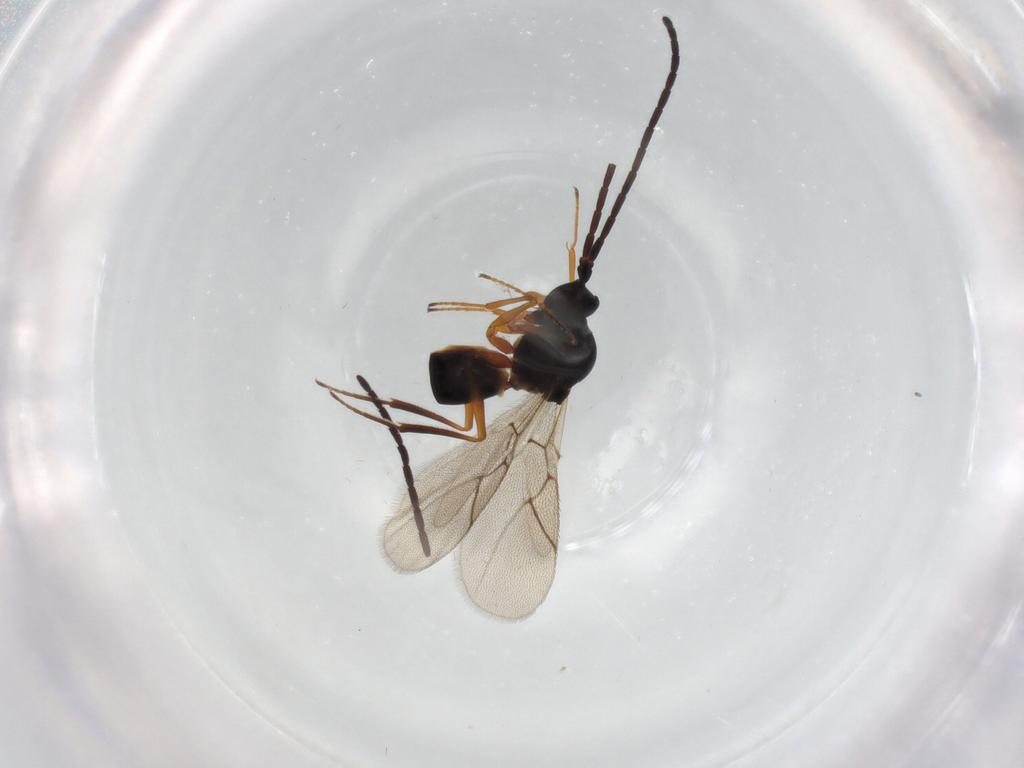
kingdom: Animalia
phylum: Arthropoda
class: Insecta
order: Hymenoptera
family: Figitidae
